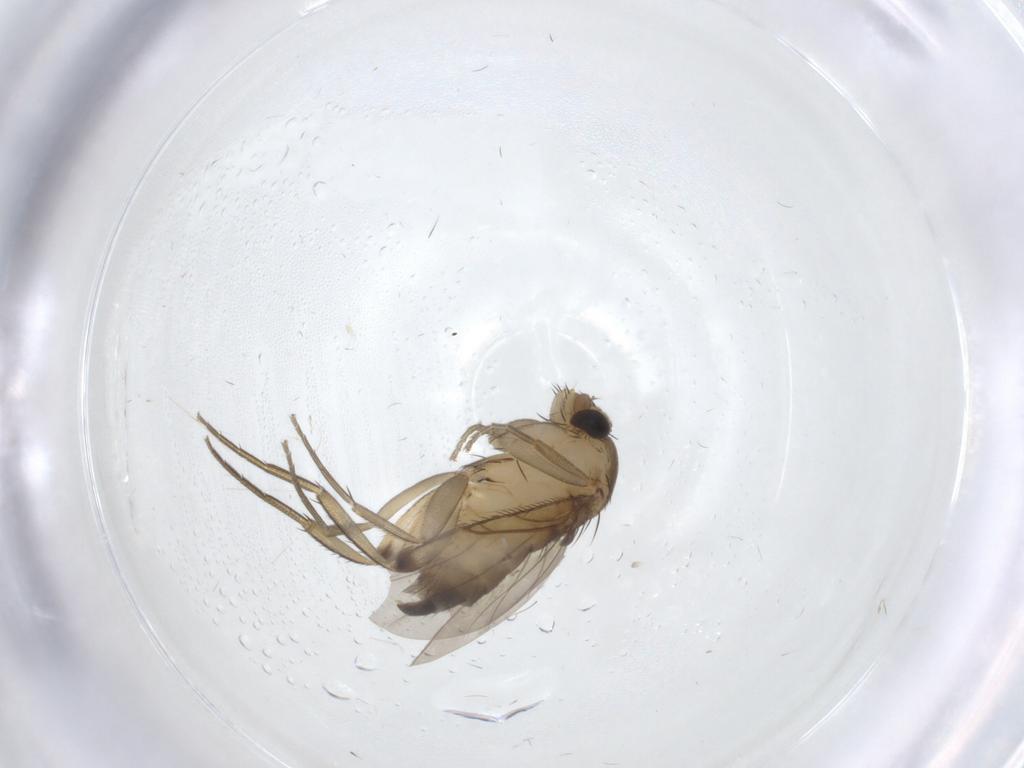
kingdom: Animalia
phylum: Arthropoda
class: Insecta
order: Diptera
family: Phoridae
